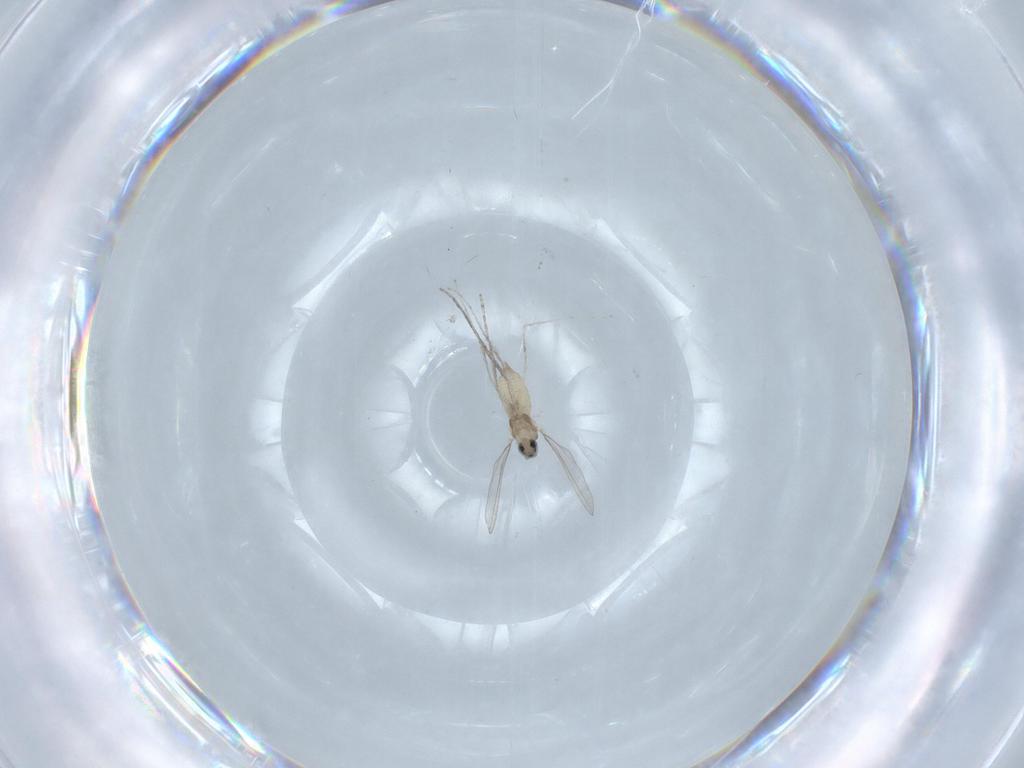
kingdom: Animalia
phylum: Arthropoda
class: Insecta
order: Diptera
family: Cecidomyiidae
